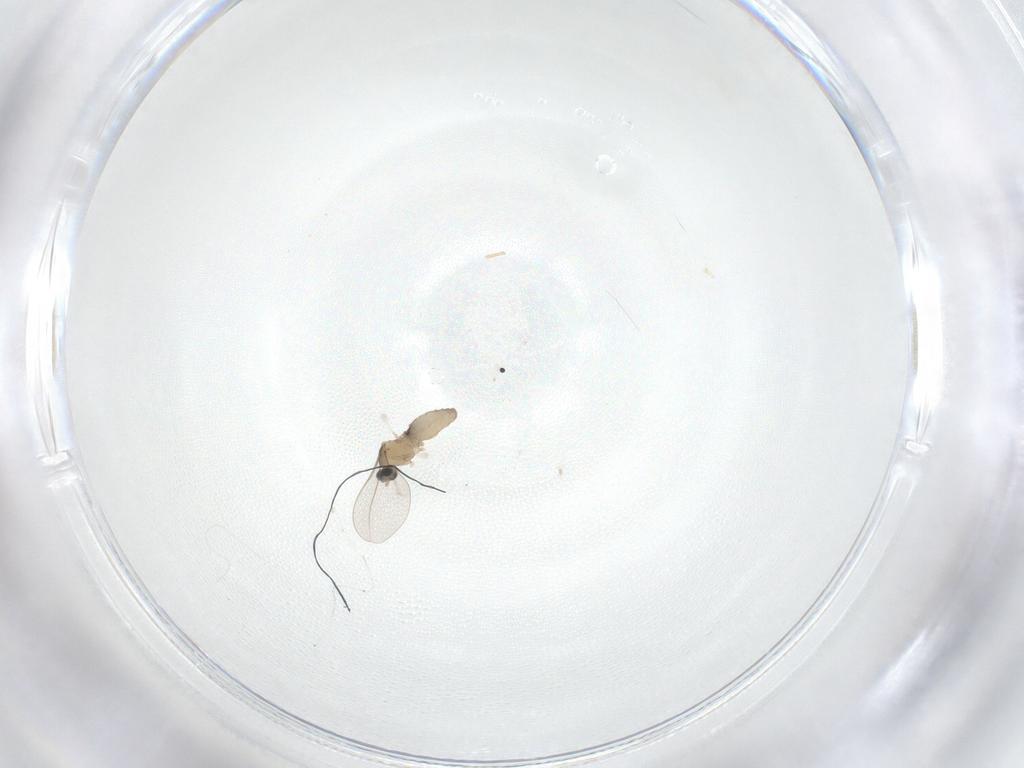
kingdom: Animalia
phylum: Arthropoda
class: Insecta
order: Diptera
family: Cecidomyiidae
